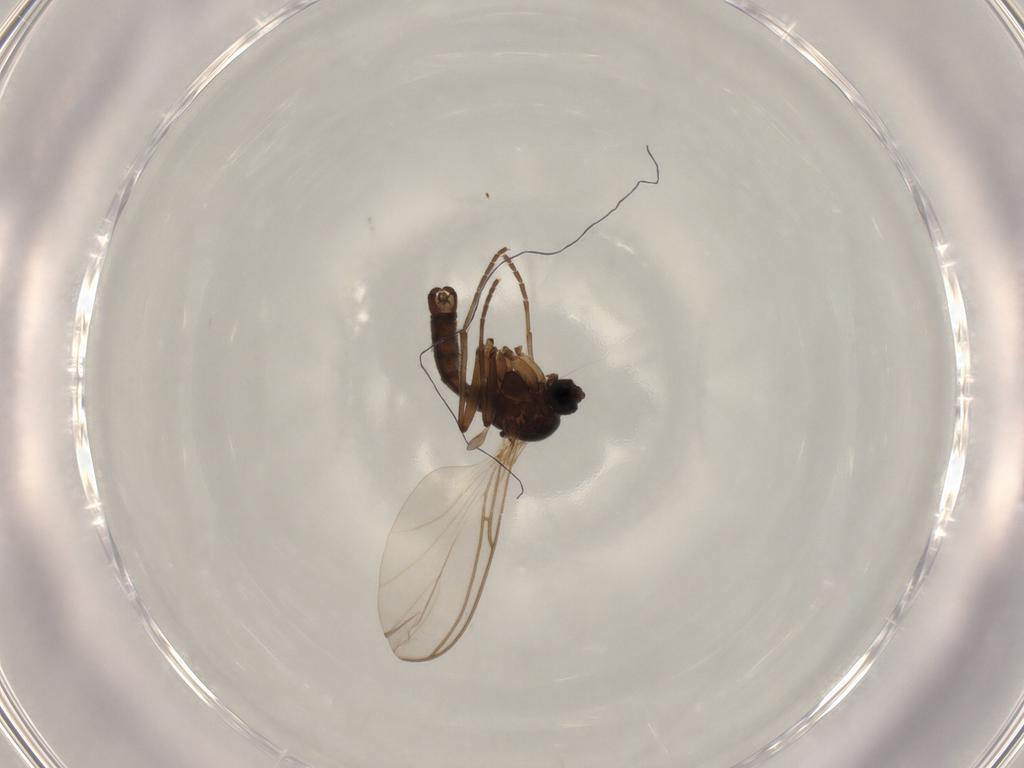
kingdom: Animalia
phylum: Arthropoda
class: Insecta
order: Diptera
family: Sciaridae
